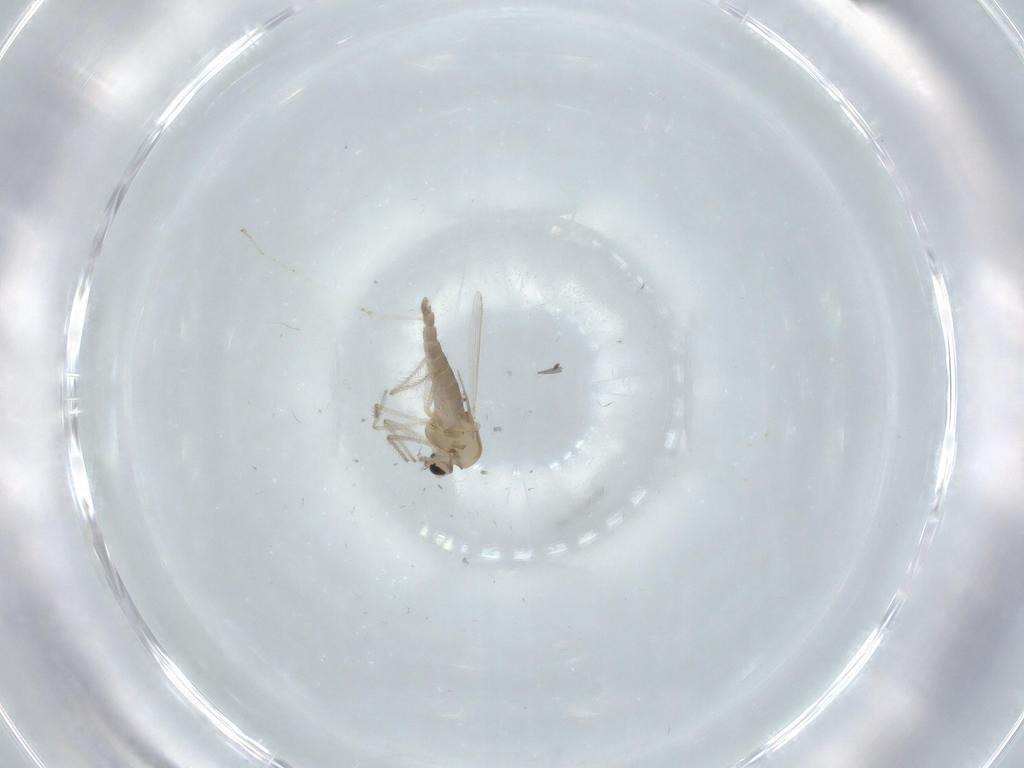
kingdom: Animalia
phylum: Arthropoda
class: Insecta
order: Diptera
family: Chironomidae
